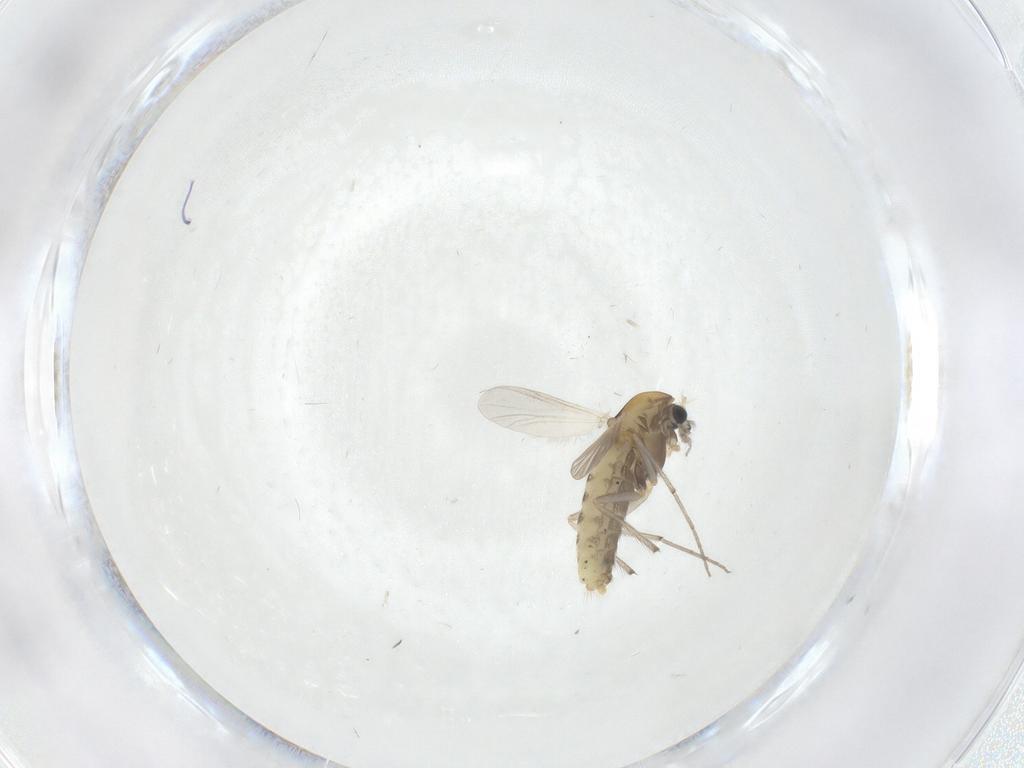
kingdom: Animalia
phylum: Arthropoda
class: Insecta
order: Diptera
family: Chironomidae
